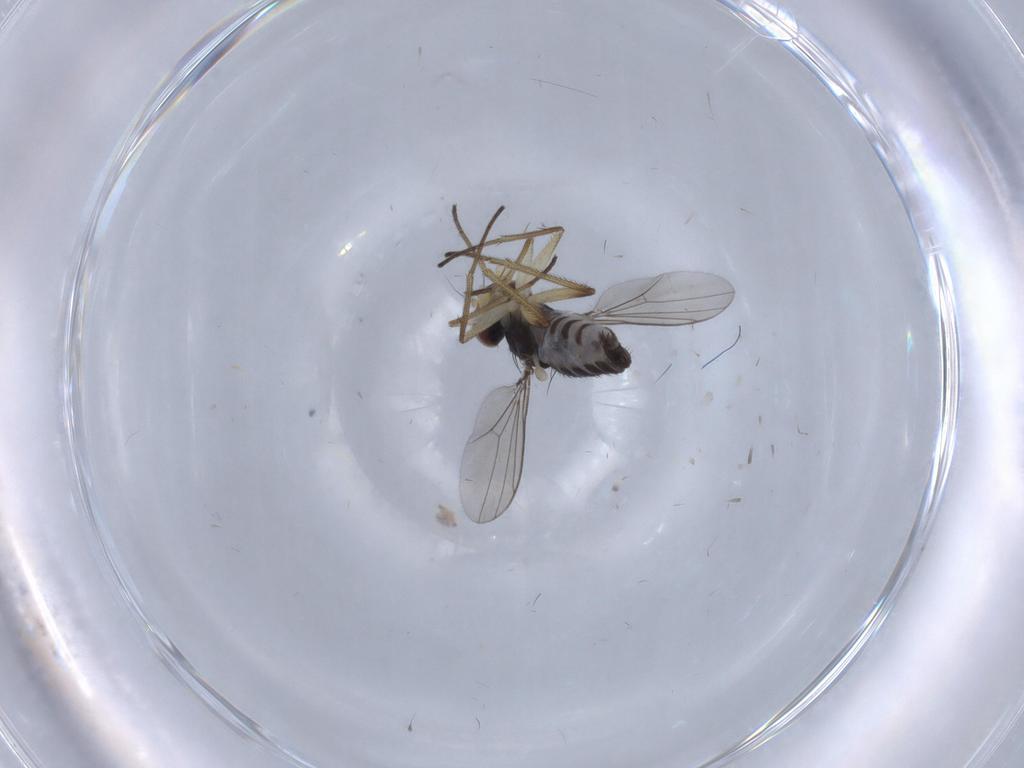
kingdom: Animalia
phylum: Arthropoda
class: Insecta
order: Diptera
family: Dolichopodidae
